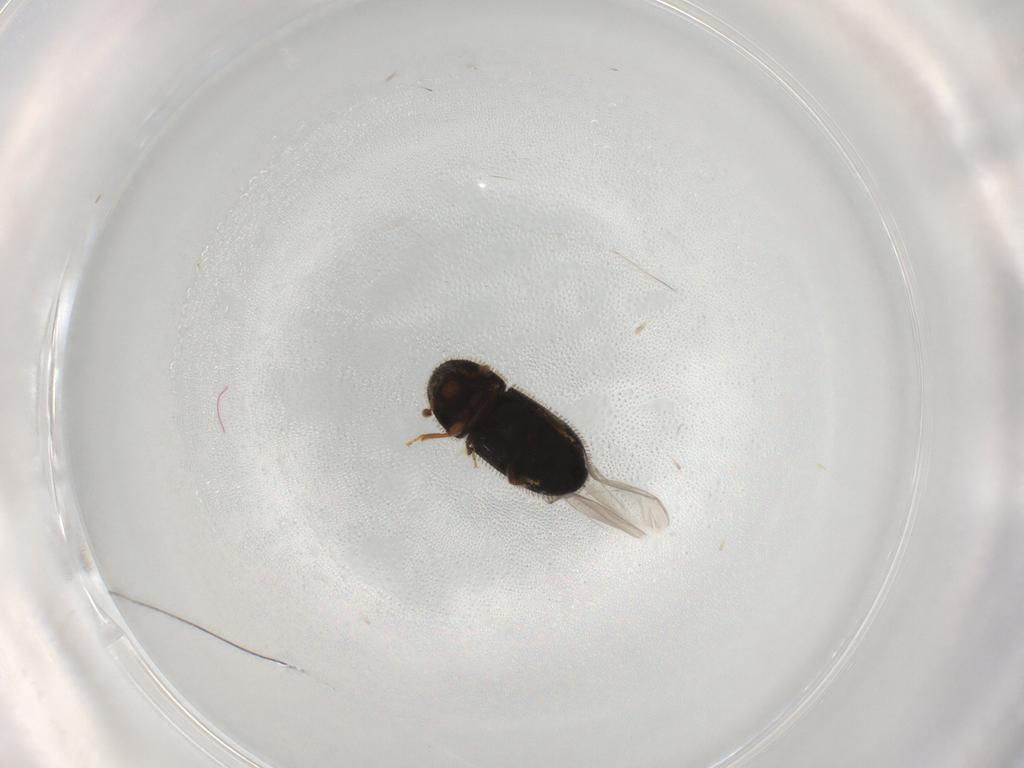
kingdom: Animalia
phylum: Arthropoda
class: Insecta
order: Coleoptera
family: Curculionidae
